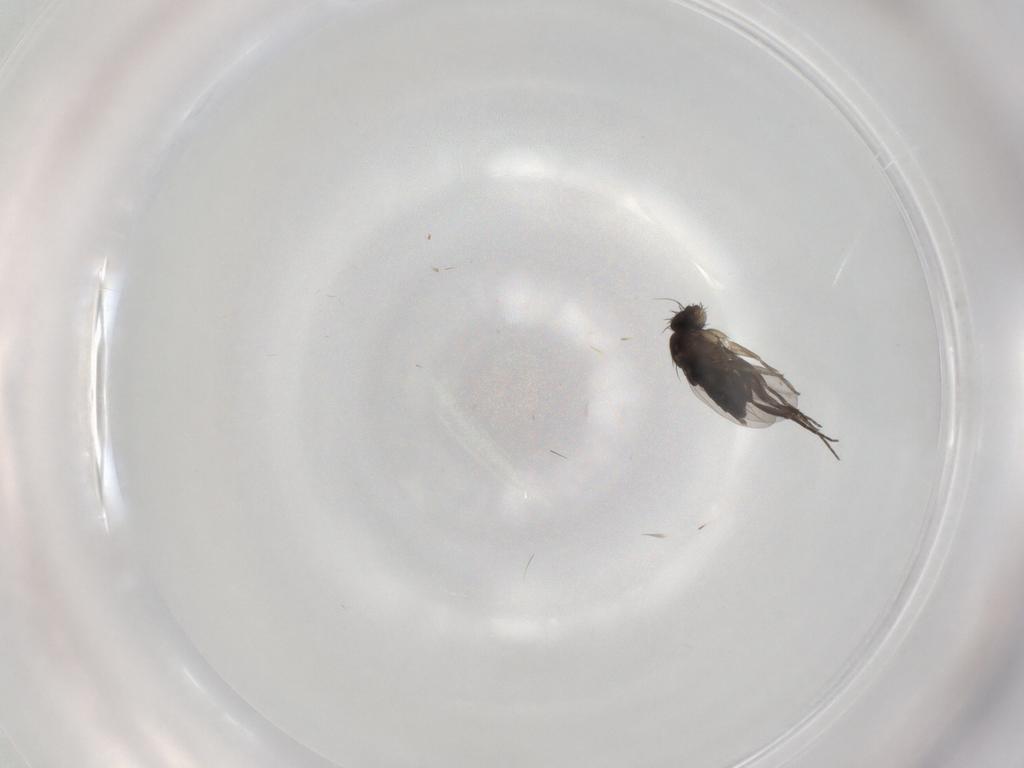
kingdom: Animalia
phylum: Arthropoda
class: Insecta
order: Diptera
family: Phoridae
